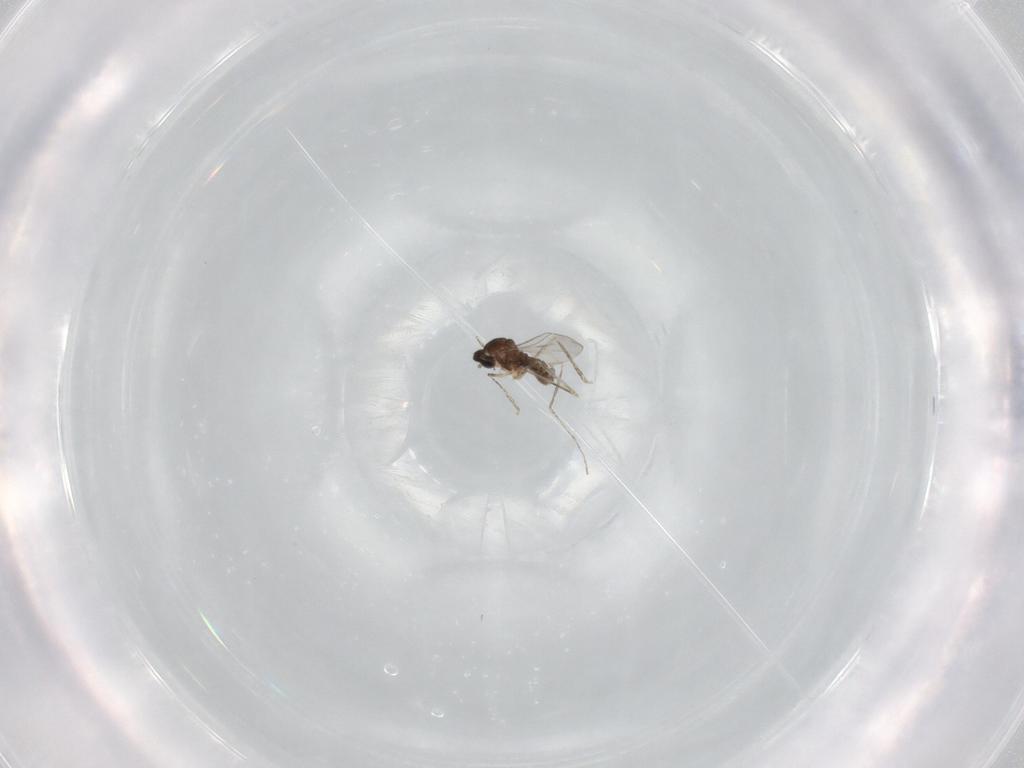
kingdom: Animalia
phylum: Arthropoda
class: Insecta
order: Diptera
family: Cecidomyiidae
